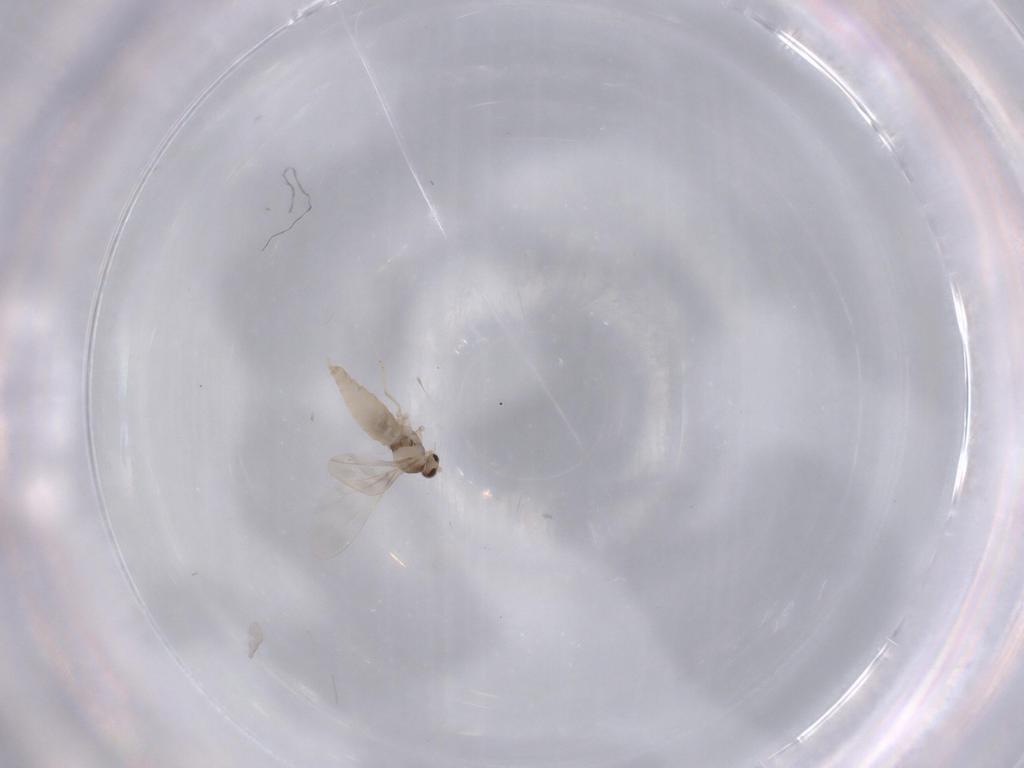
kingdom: Animalia
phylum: Arthropoda
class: Insecta
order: Diptera
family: Cecidomyiidae
